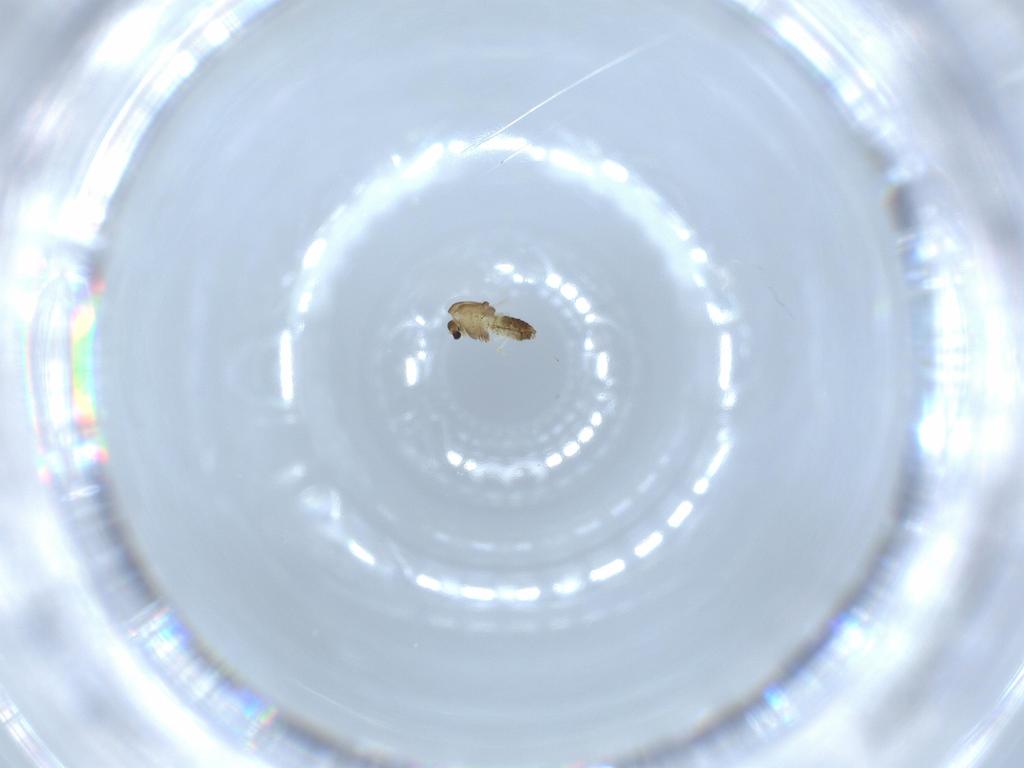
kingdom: Animalia
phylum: Arthropoda
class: Insecta
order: Diptera
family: Chironomidae
